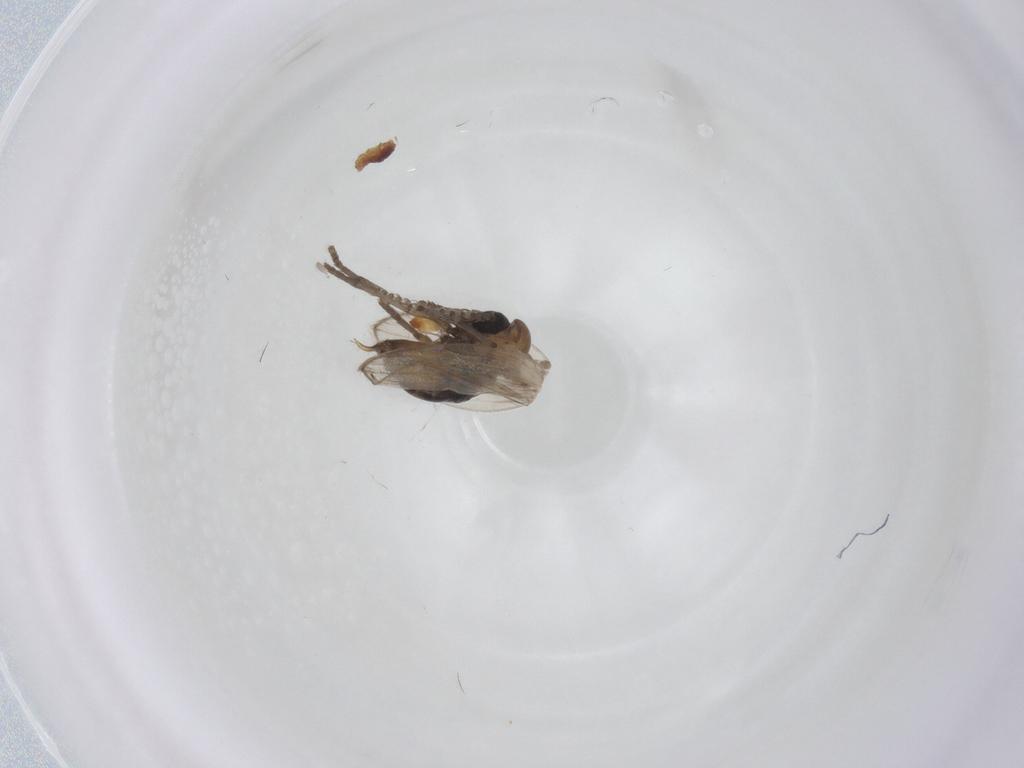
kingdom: Animalia
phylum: Arthropoda
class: Insecta
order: Diptera
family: Psychodidae
